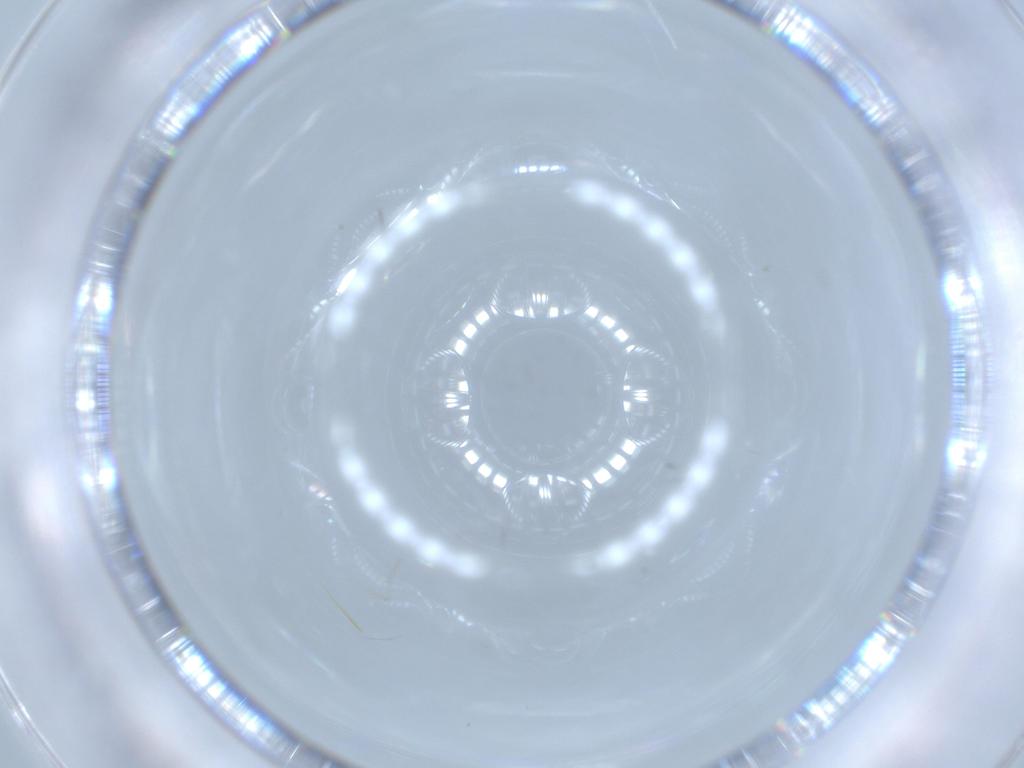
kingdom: Animalia
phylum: Arthropoda
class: Insecta
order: Diptera
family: Cecidomyiidae
